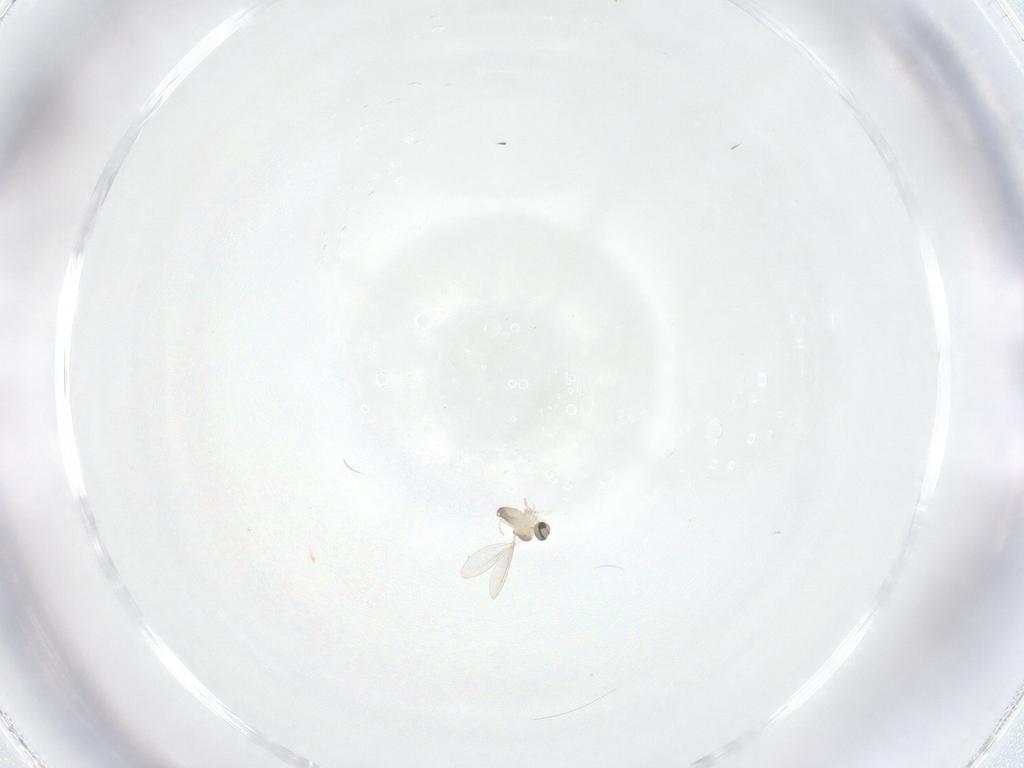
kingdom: Animalia
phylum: Arthropoda
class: Insecta
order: Diptera
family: Cecidomyiidae
